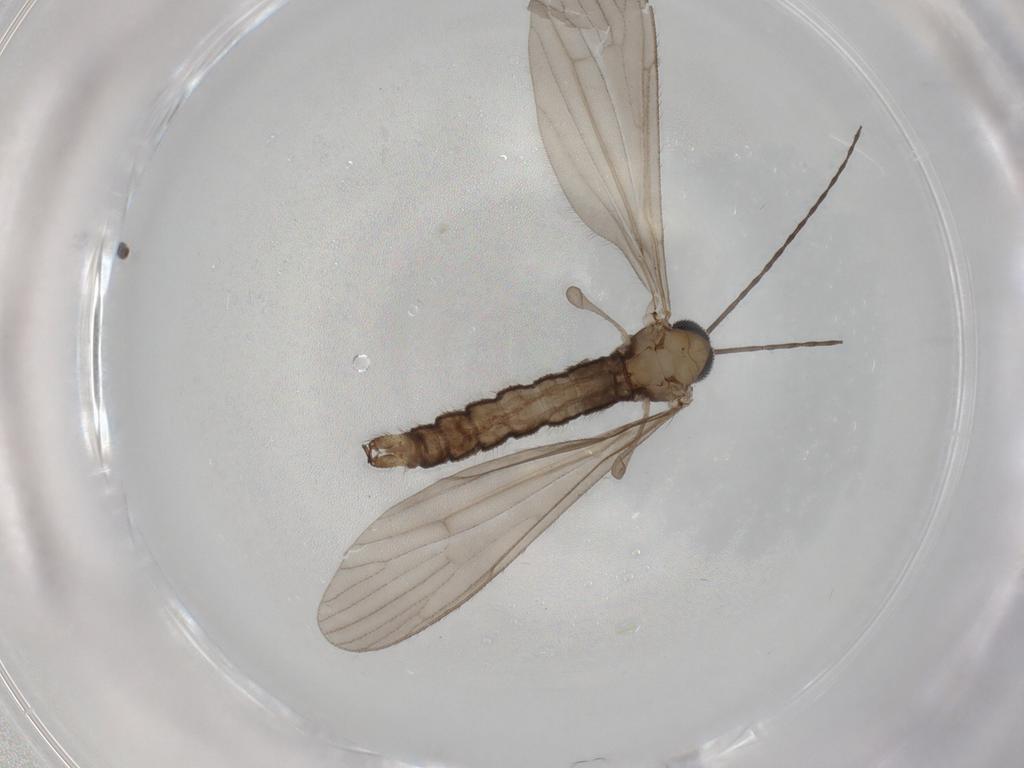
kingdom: Animalia
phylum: Arthropoda
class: Insecta
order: Diptera
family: Limoniidae
